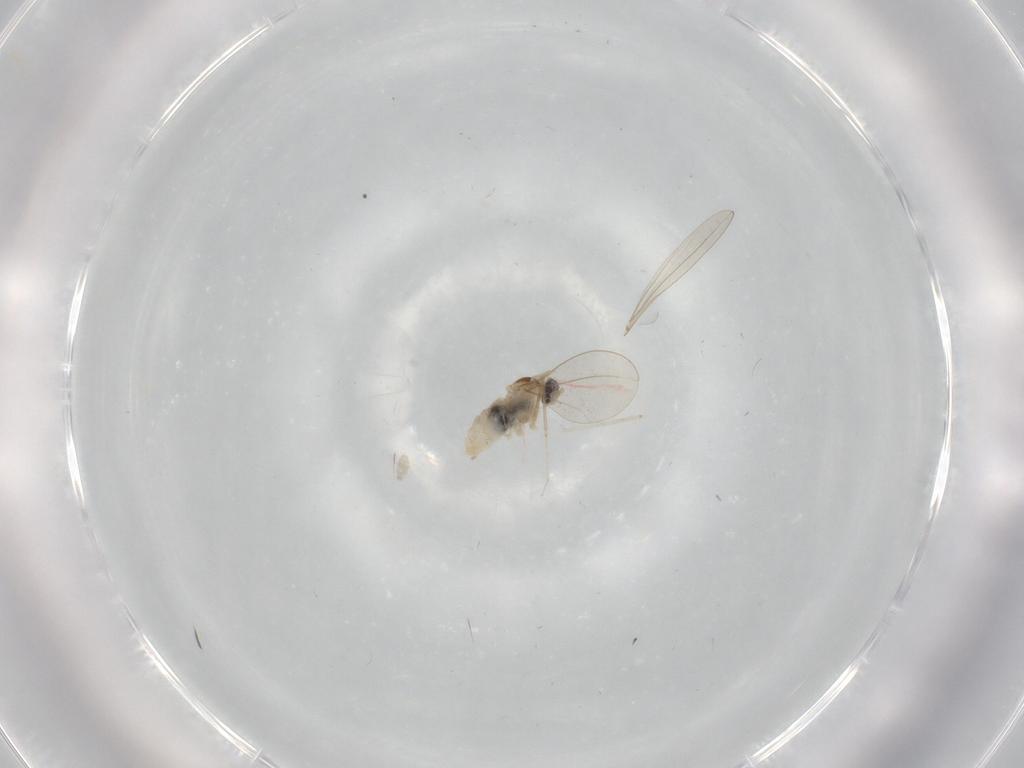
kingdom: Animalia
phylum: Arthropoda
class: Insecta
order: Diptera
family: Cecidomyiidae
